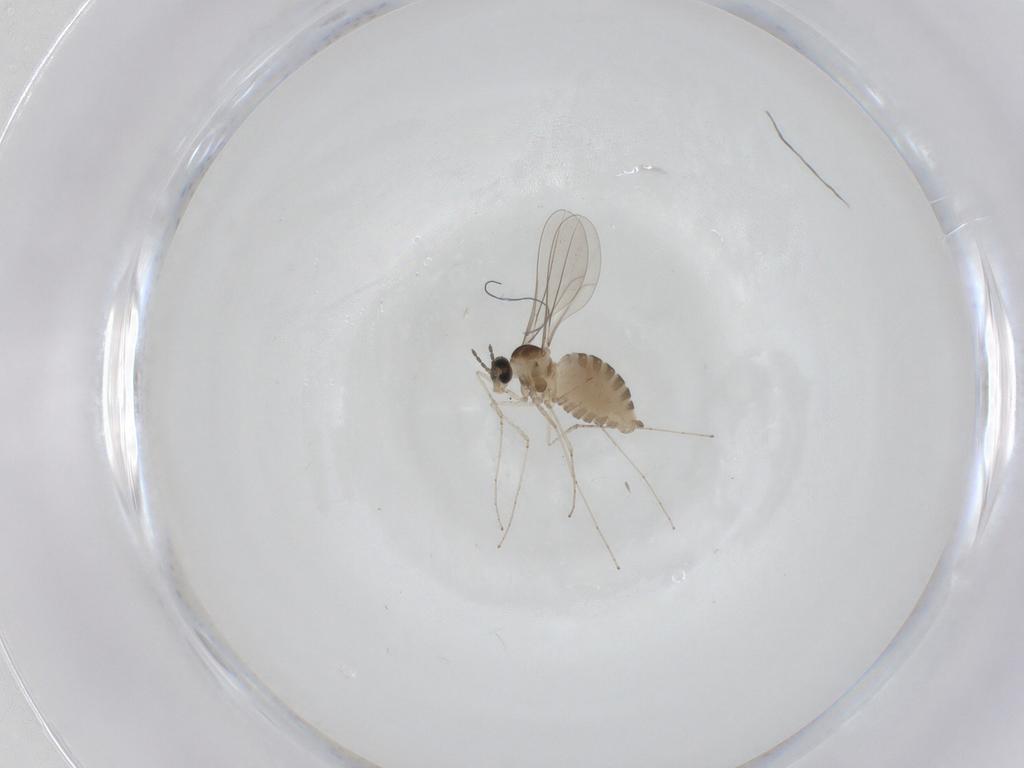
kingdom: Animalia
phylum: Arthropoda
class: Insecta
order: Diptera
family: Cecidomyiidae
